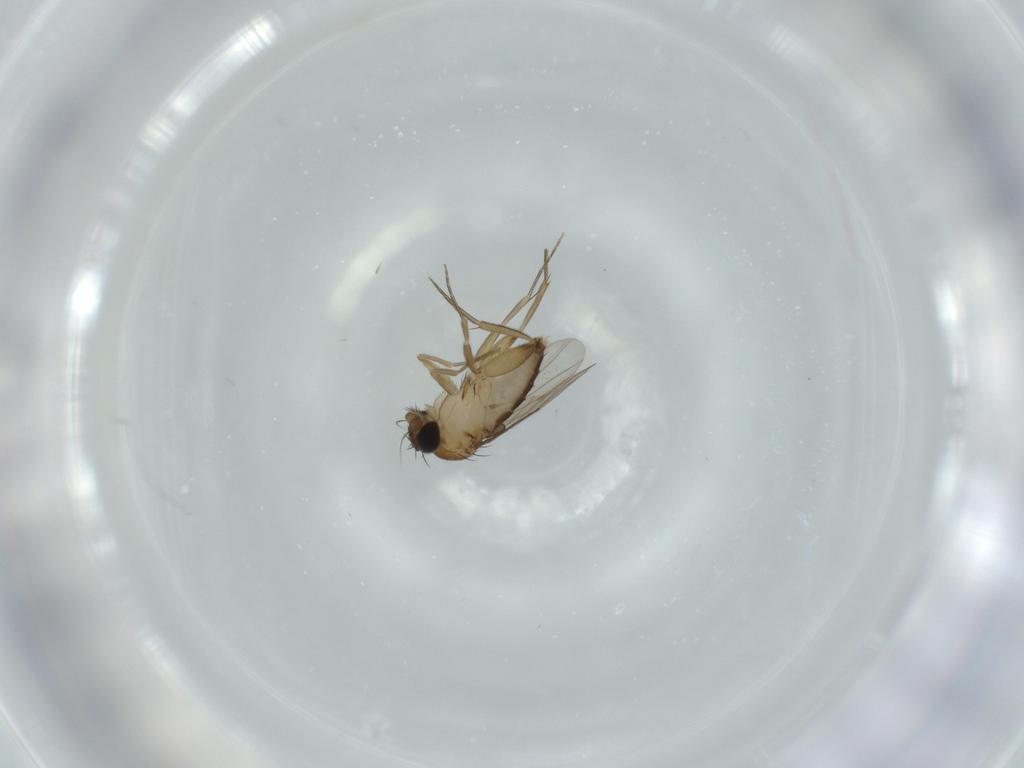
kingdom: Animalia
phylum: Arthropoda
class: Insecta
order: Diptera
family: Phoridae
